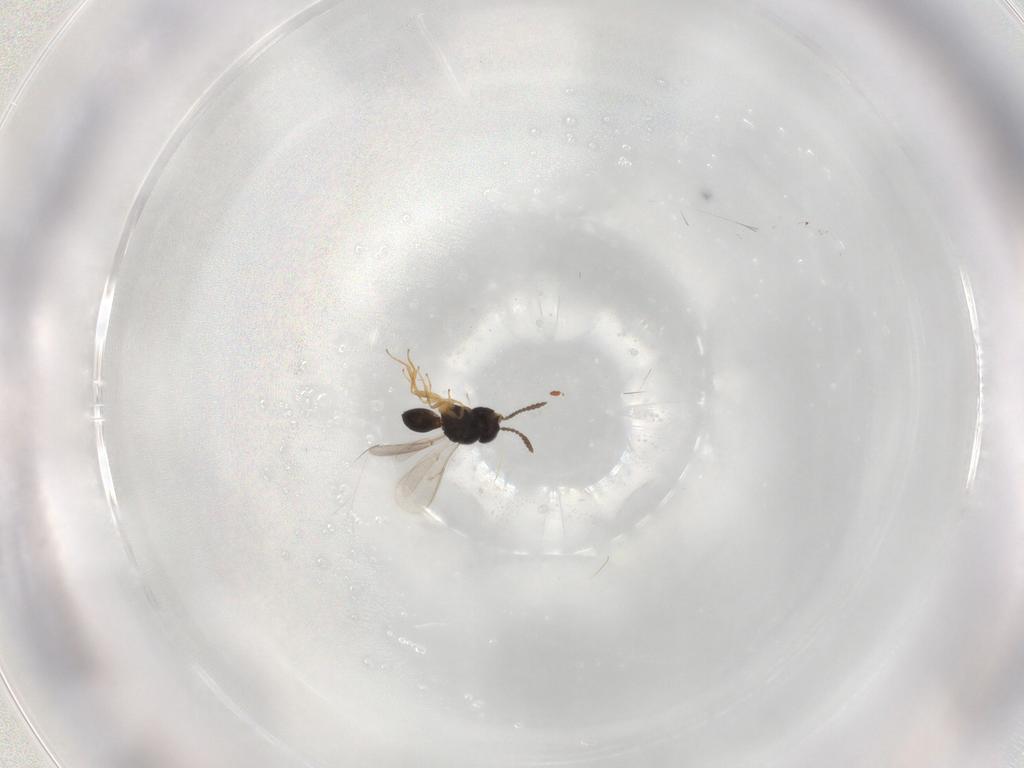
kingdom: Animalia
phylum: Arthropoda
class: Insecta
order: Hymenoptera
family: Scelionidae
